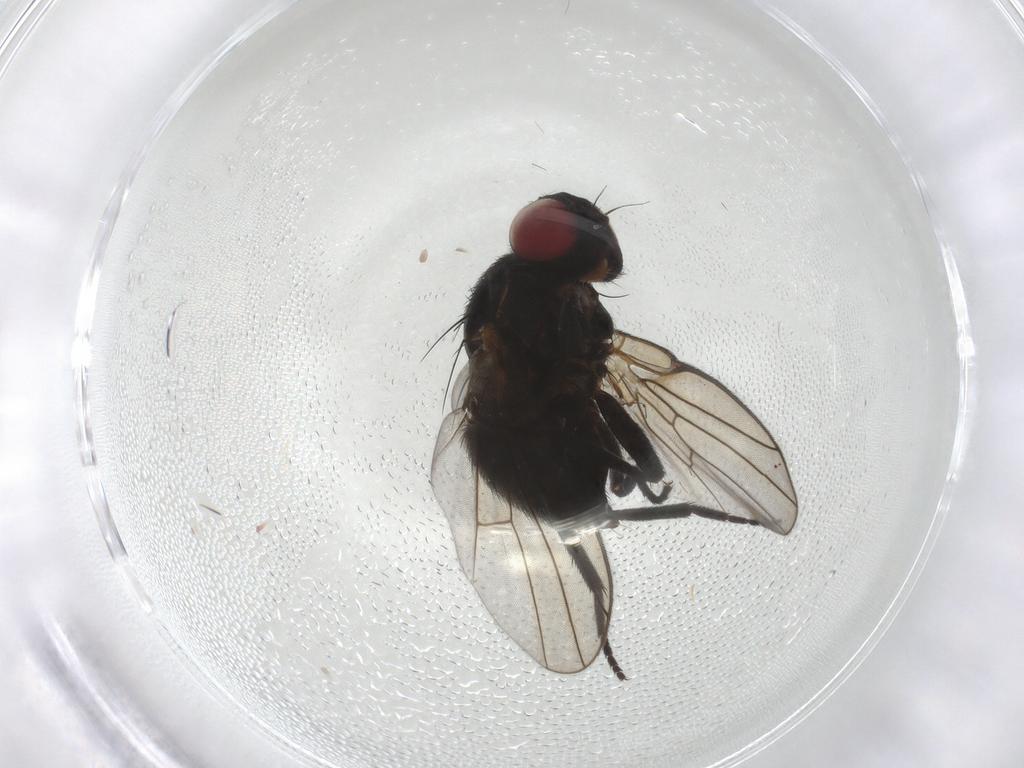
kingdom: Animalia
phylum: Arthropoda
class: Insecta
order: Diptera
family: Agromyzidae
